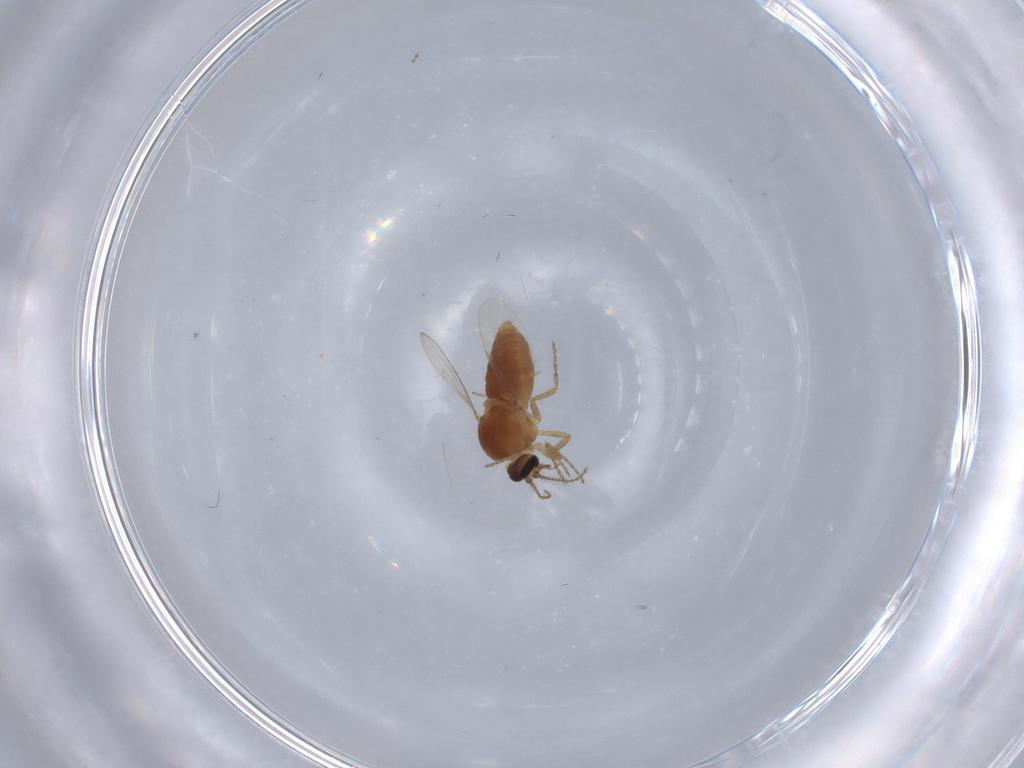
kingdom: Animalia
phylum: Arthropoda
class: Insecta
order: Diptera
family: Ceratopogonidae
